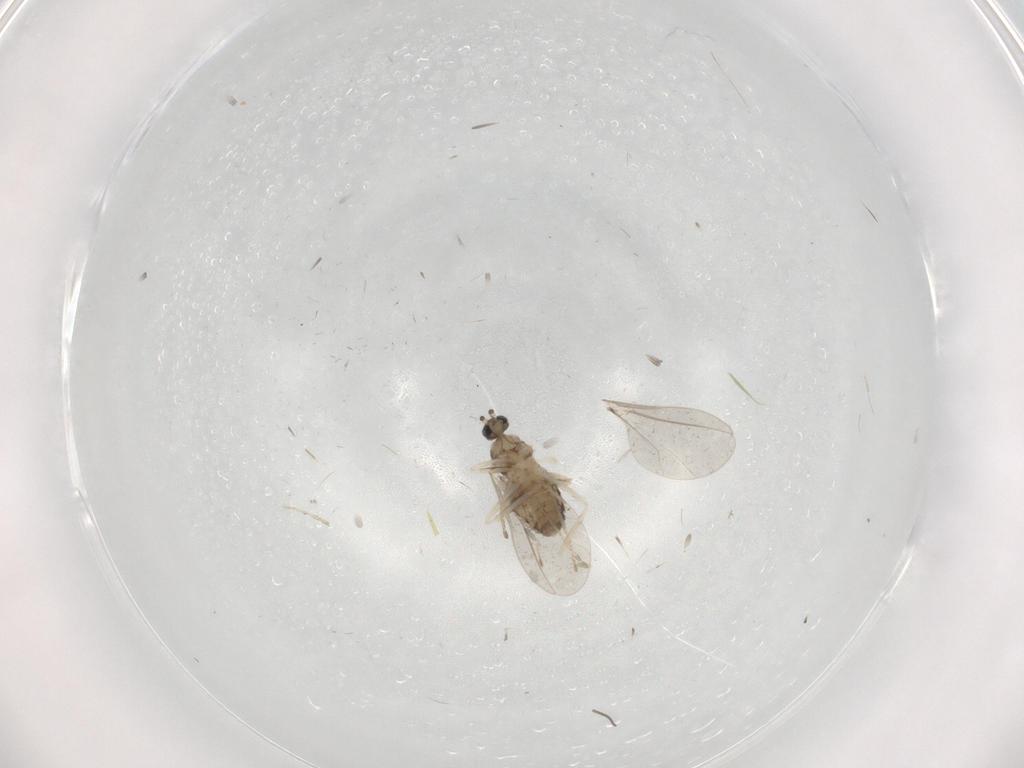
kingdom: Animalia
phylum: Arthropoda
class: Insecta
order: Diptera
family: Cecidomyiidae
